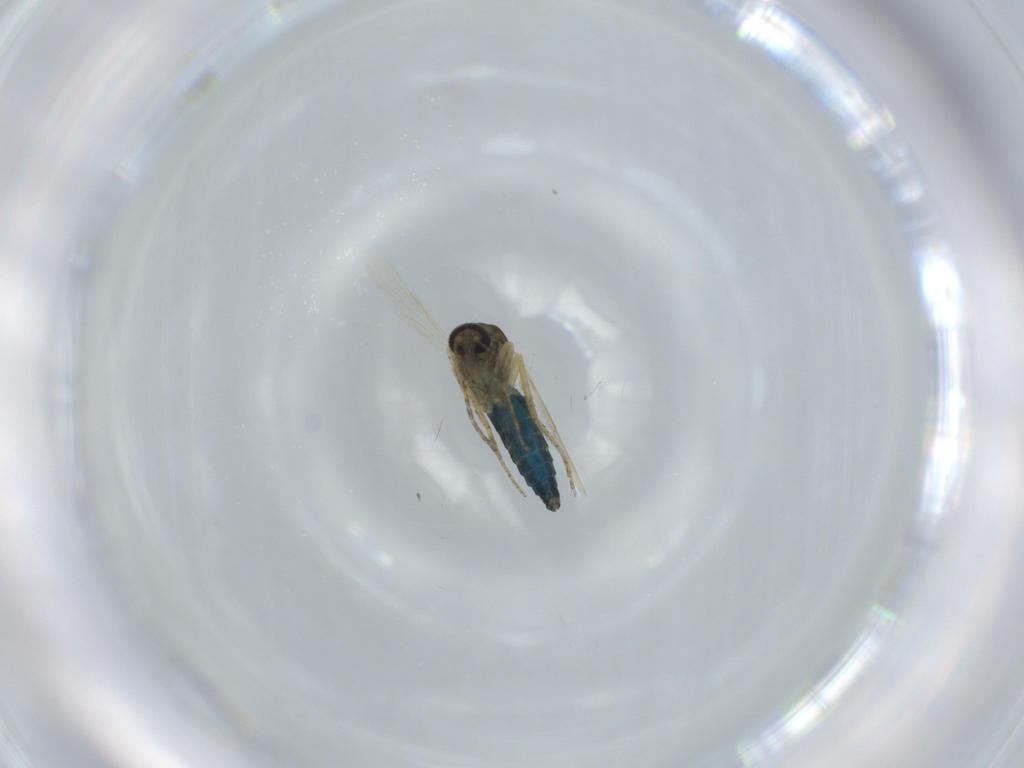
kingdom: Animalia
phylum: Arthropoda
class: Insecta
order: Diptera
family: Ceratopogonidae
